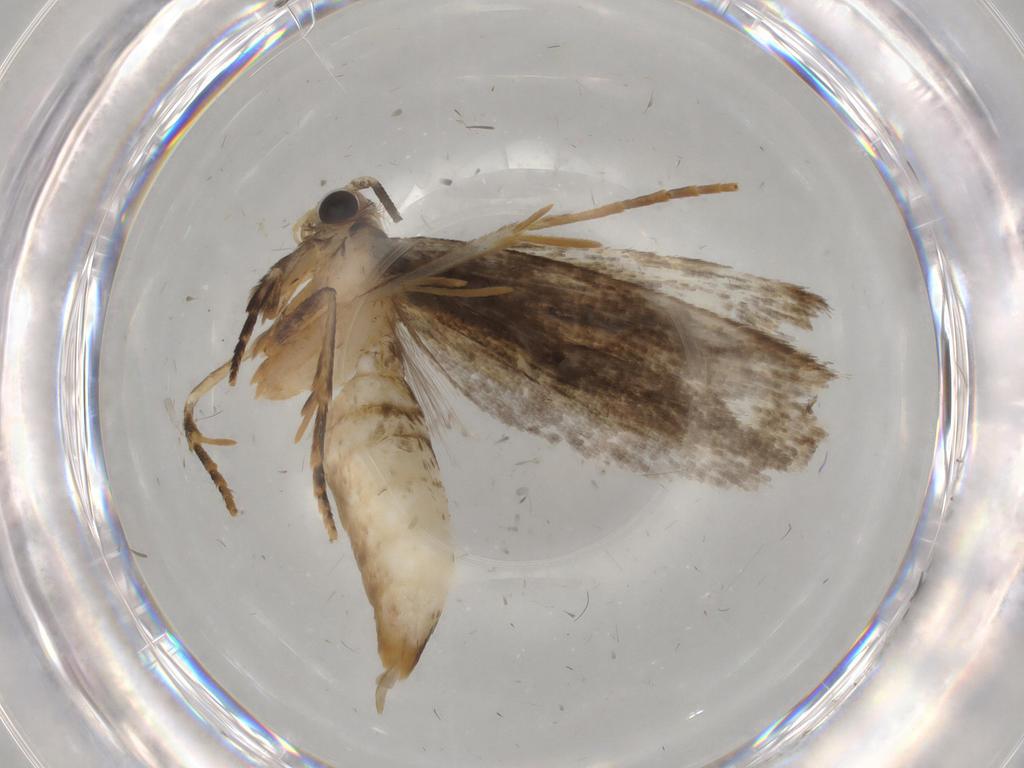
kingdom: Animalia
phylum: Arthropoda
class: Insecta
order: Lepidoptera
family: Tineidae
